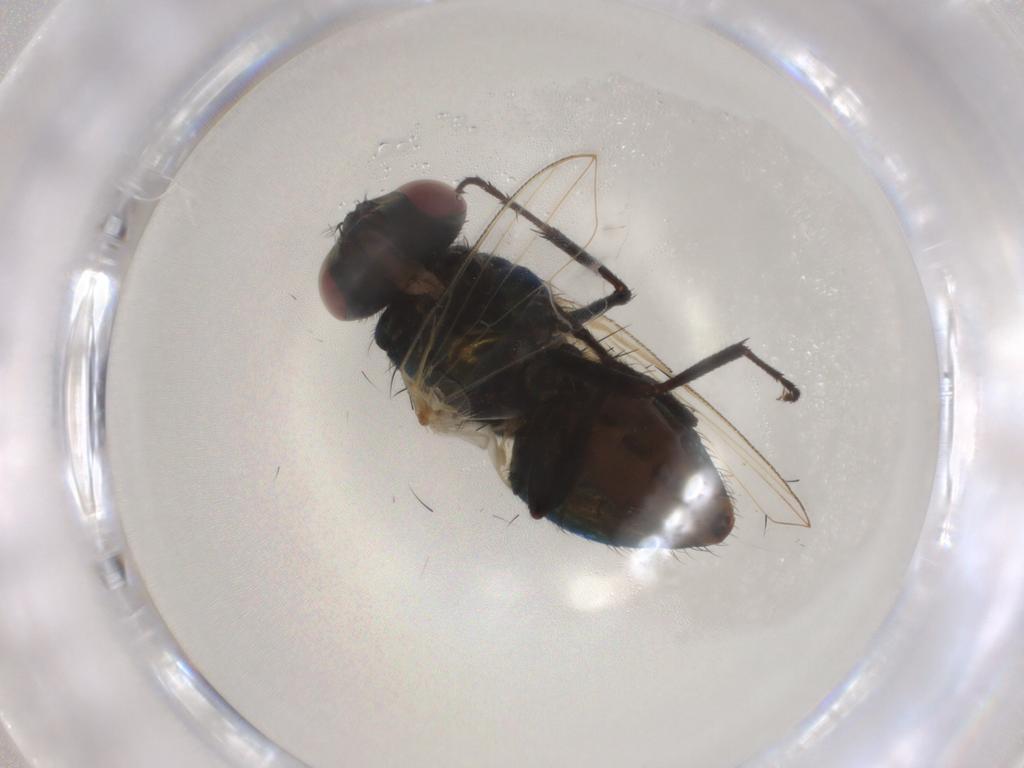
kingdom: Animalia
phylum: Arthropoda
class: Insecta
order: Diptera
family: Muscidae
